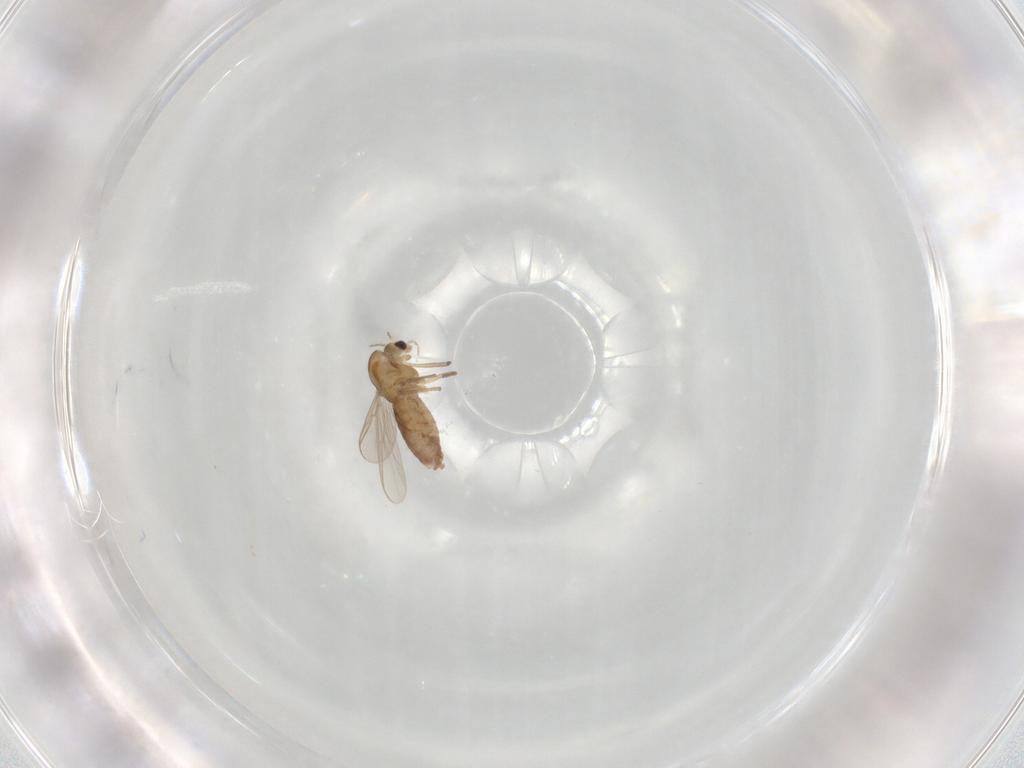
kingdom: Animalia
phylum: Arthropoda
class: Insecta
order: Diptera
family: Chironomidae
